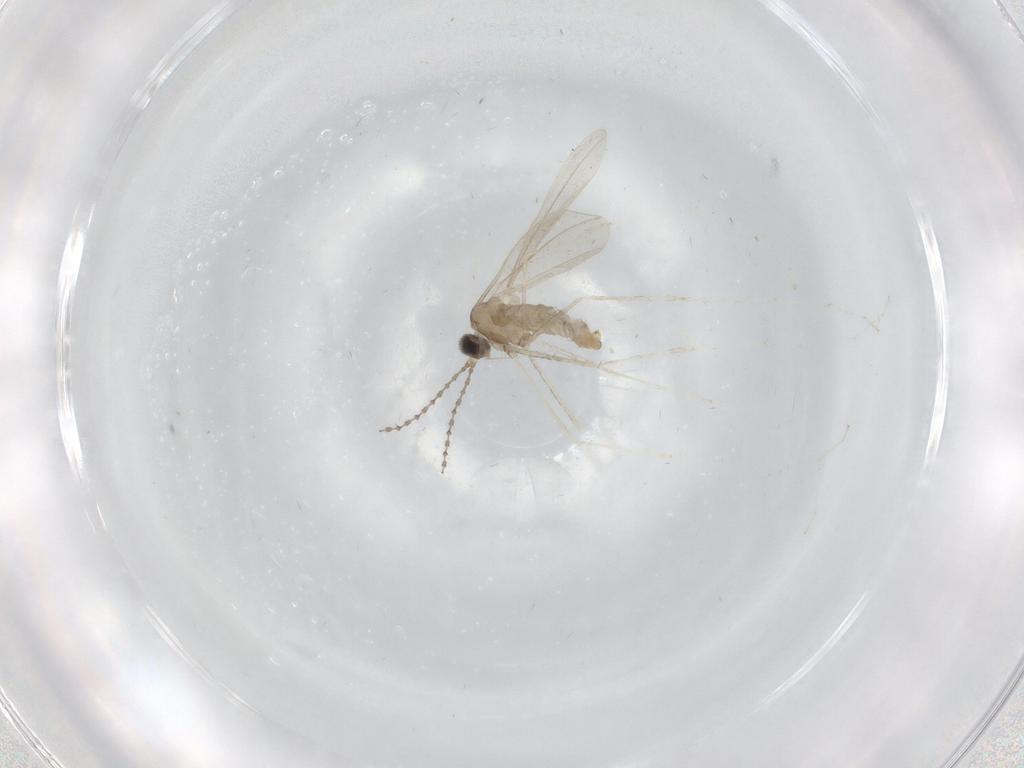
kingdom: Animalia
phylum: Arthropoda
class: Insecta
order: Diptera
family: Cecidomyiidae
